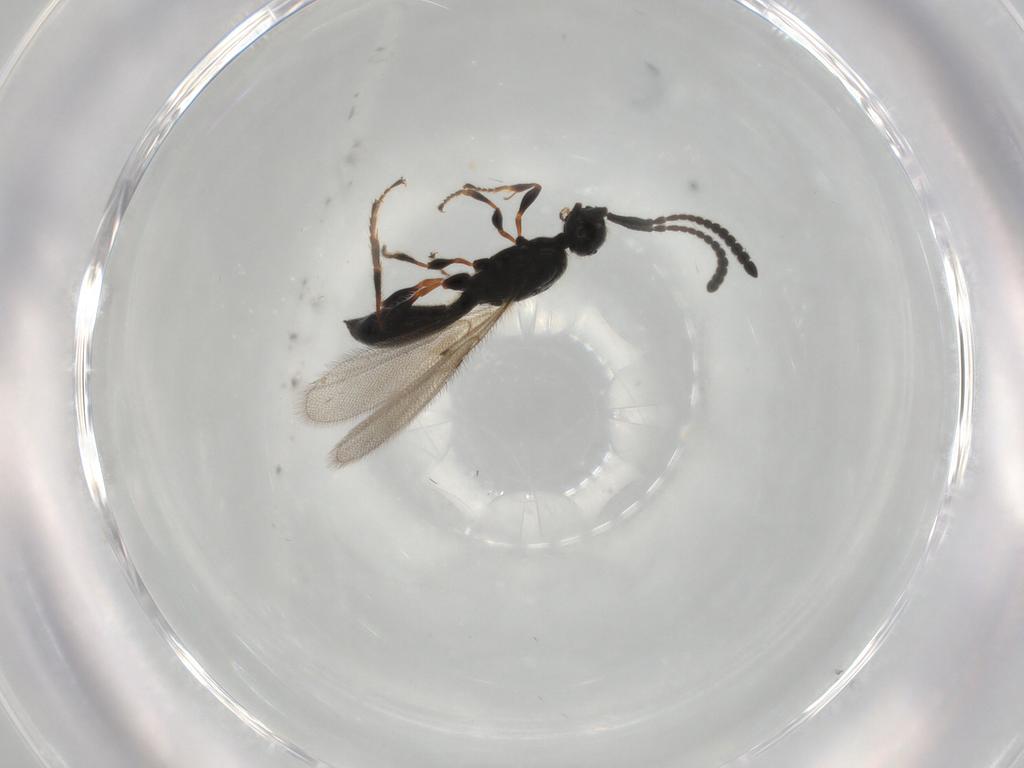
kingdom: Animalia
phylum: Arthropoda
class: Insecta
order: Hymenoptera
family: Diapriidae
